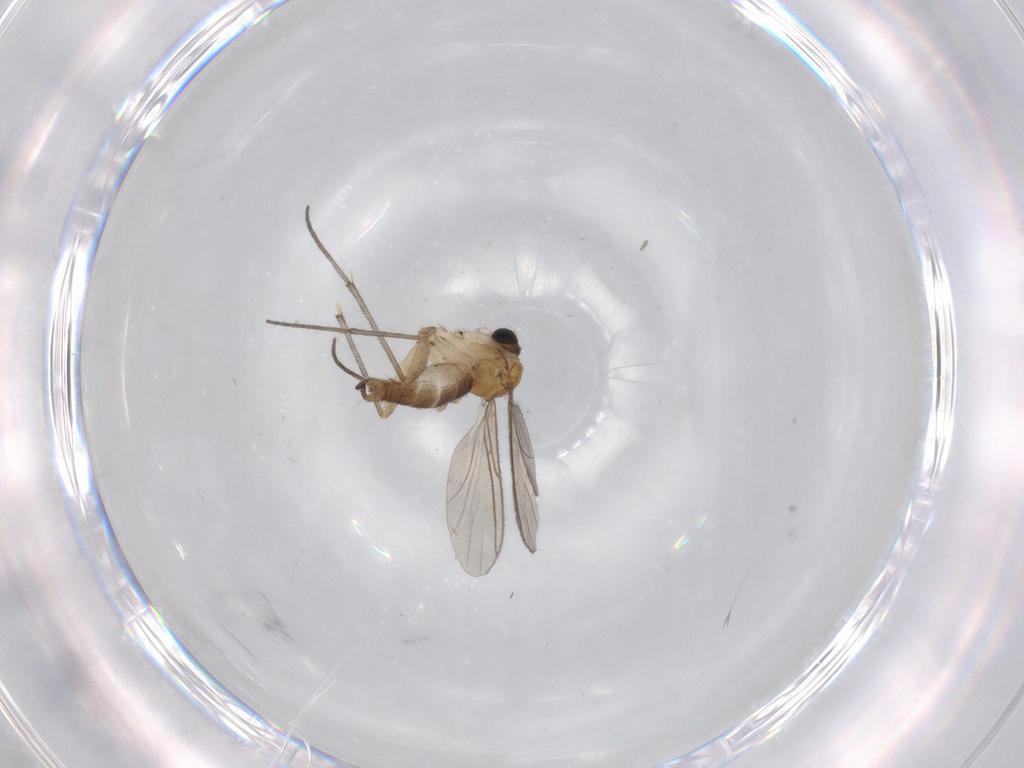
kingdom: Animalia
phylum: Arthropoda
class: Insecta
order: Diptera
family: Sciaridae
